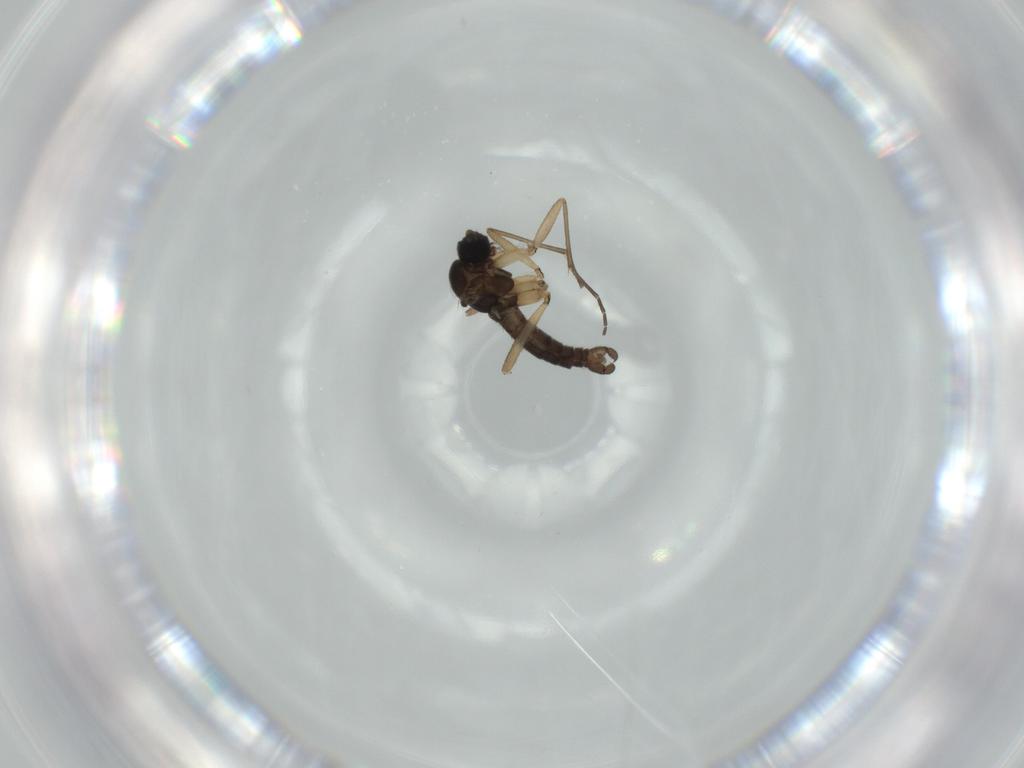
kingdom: Animalia
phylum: Arthropoda
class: Insecta
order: Diptera
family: Sciaridae
